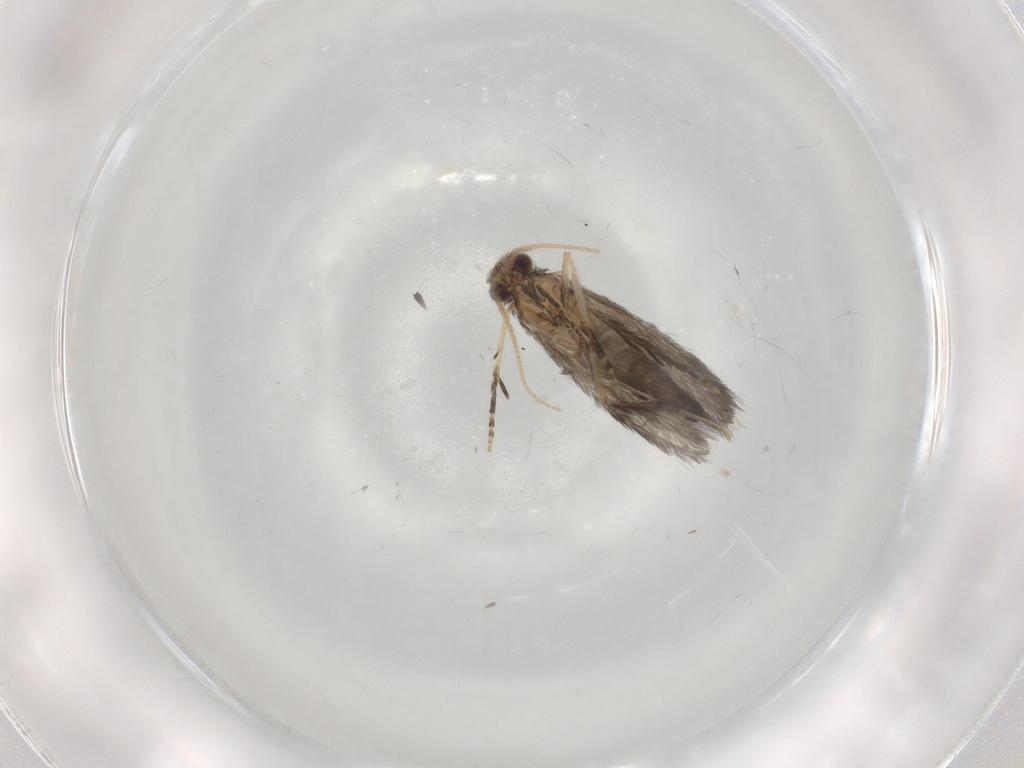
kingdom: Animalia
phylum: Arthropoda
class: Insecta
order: Trichoptera
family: Hydroptilidae
